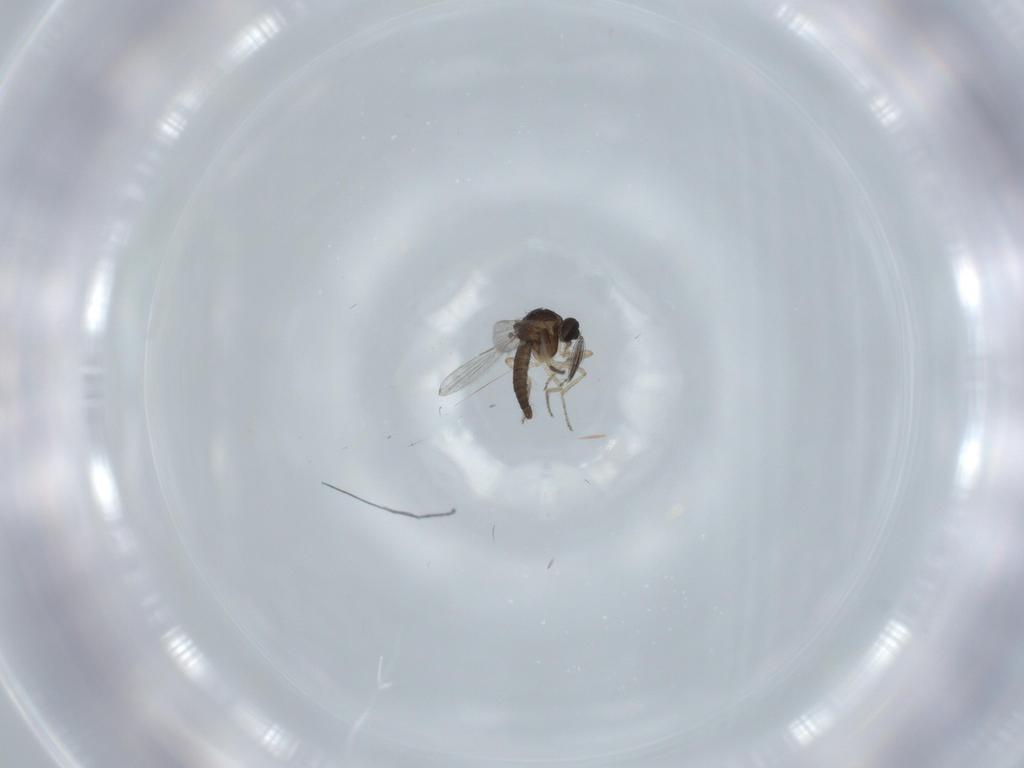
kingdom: Animalia
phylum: Arthropoda
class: Insecta
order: Diptera
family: Ceratopogonidae
